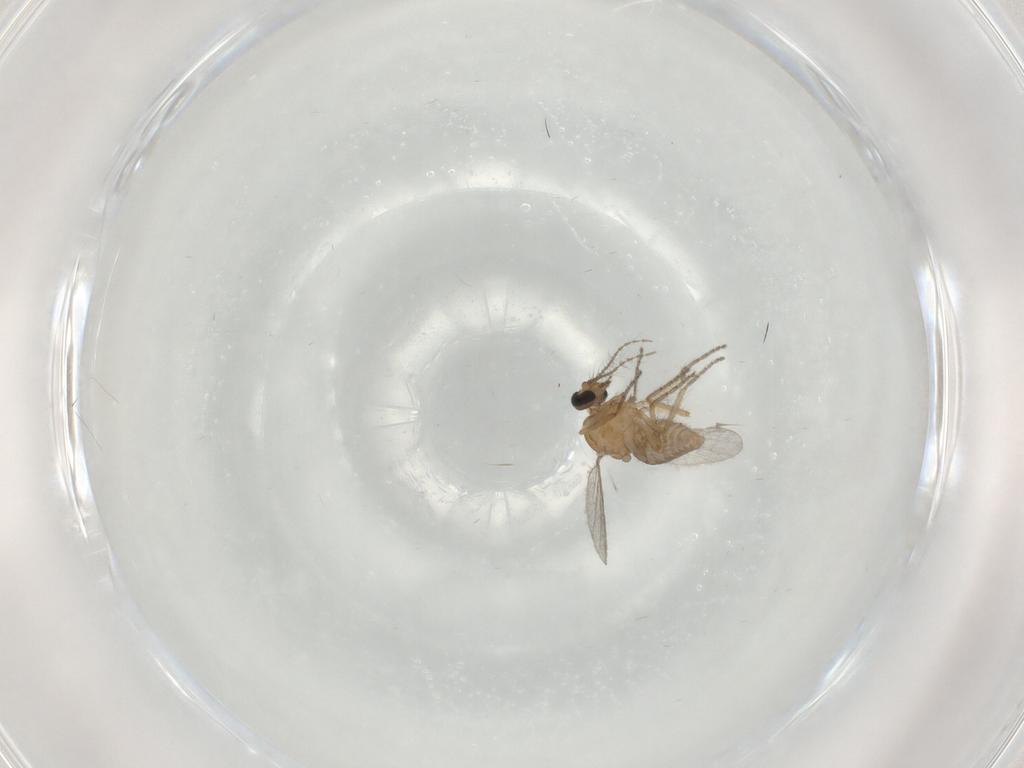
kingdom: Animalia
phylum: Arthropoda
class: Insecta
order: Diptera
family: Ceratopogonidae
